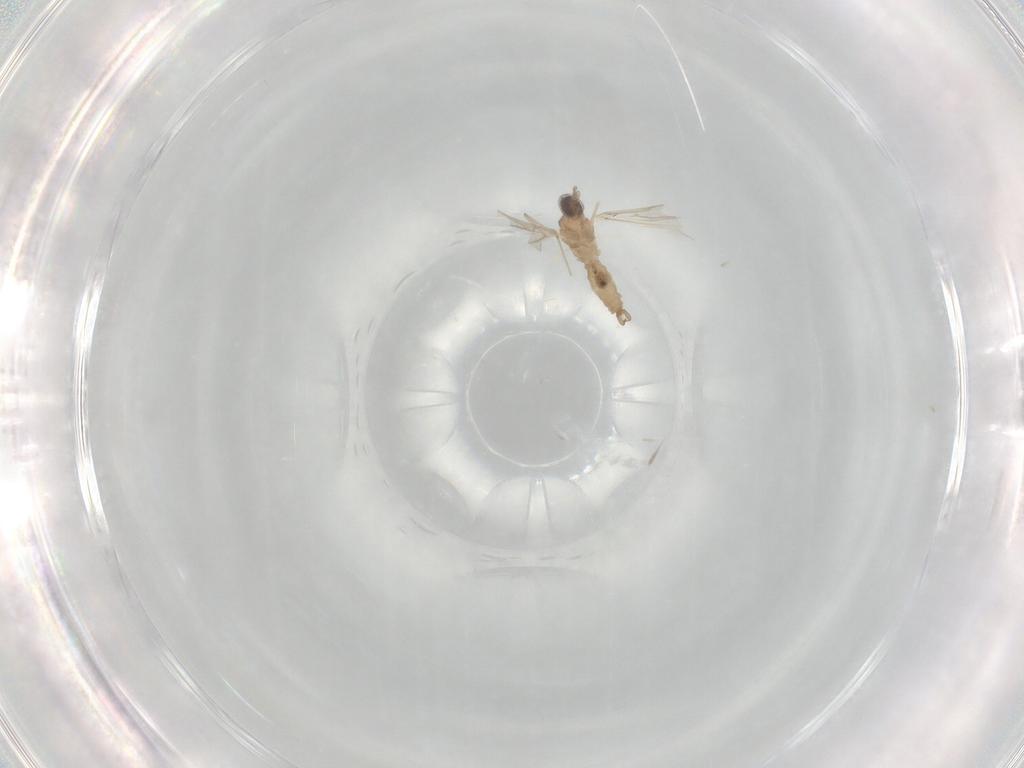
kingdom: Animalia
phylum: Arthropoda
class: Insecta
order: Diptera
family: Cecidomyiidae
